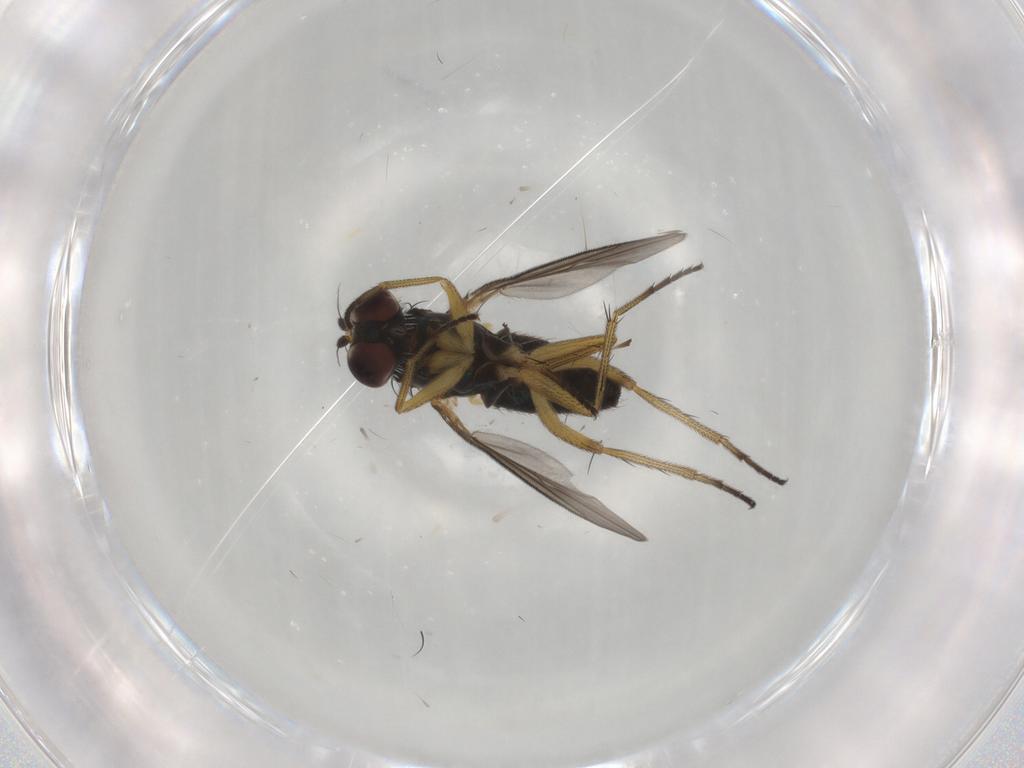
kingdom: Animalia
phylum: Arthropoda
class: Insecta
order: Diptera
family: Dolichopodidae
